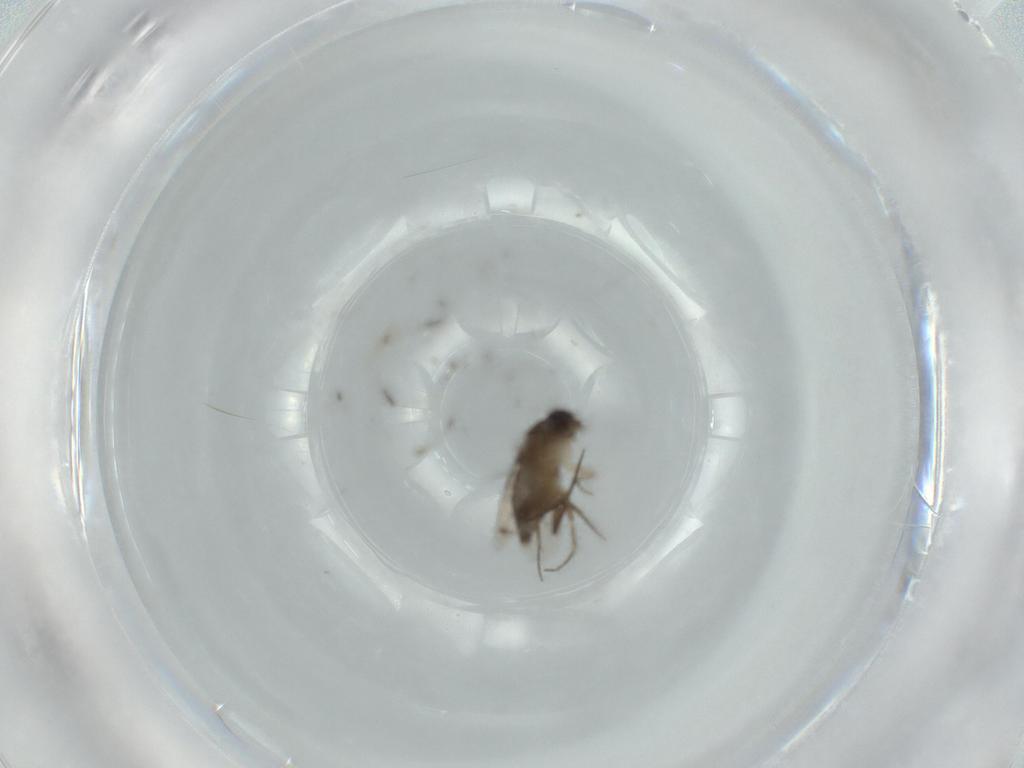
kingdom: Animalia
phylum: Arthropoda
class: Insecta
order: Diptera
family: Phoridae
